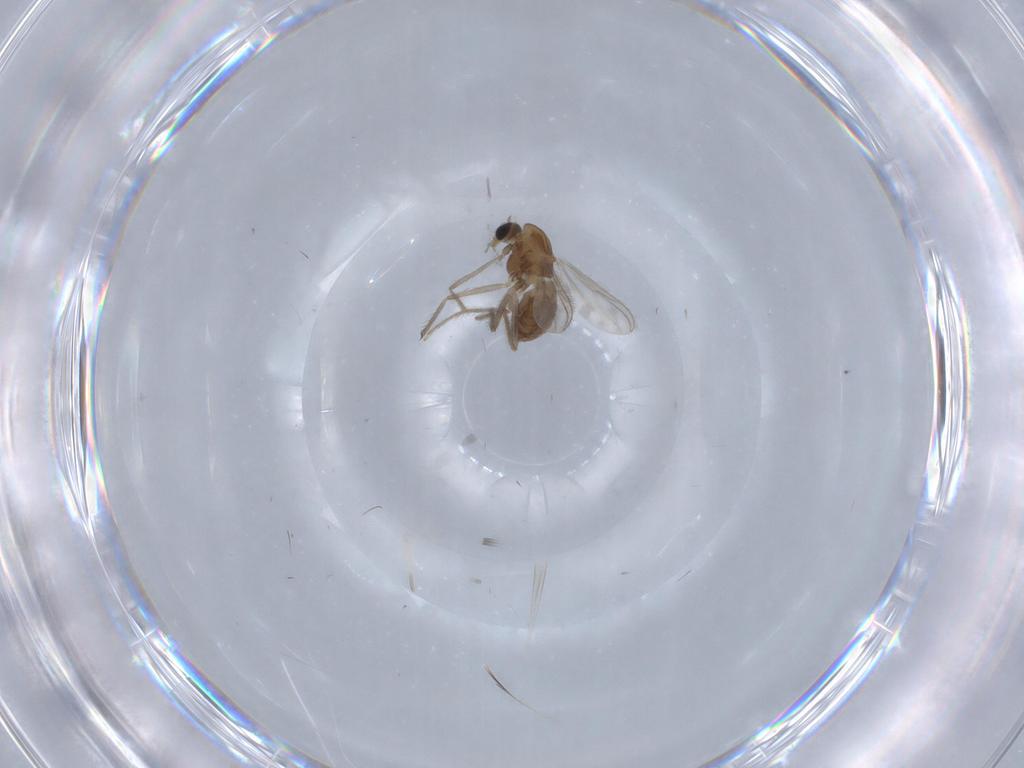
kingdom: Animalia
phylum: Arthropoda
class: Insecta
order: Diptera
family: Chironomidae
